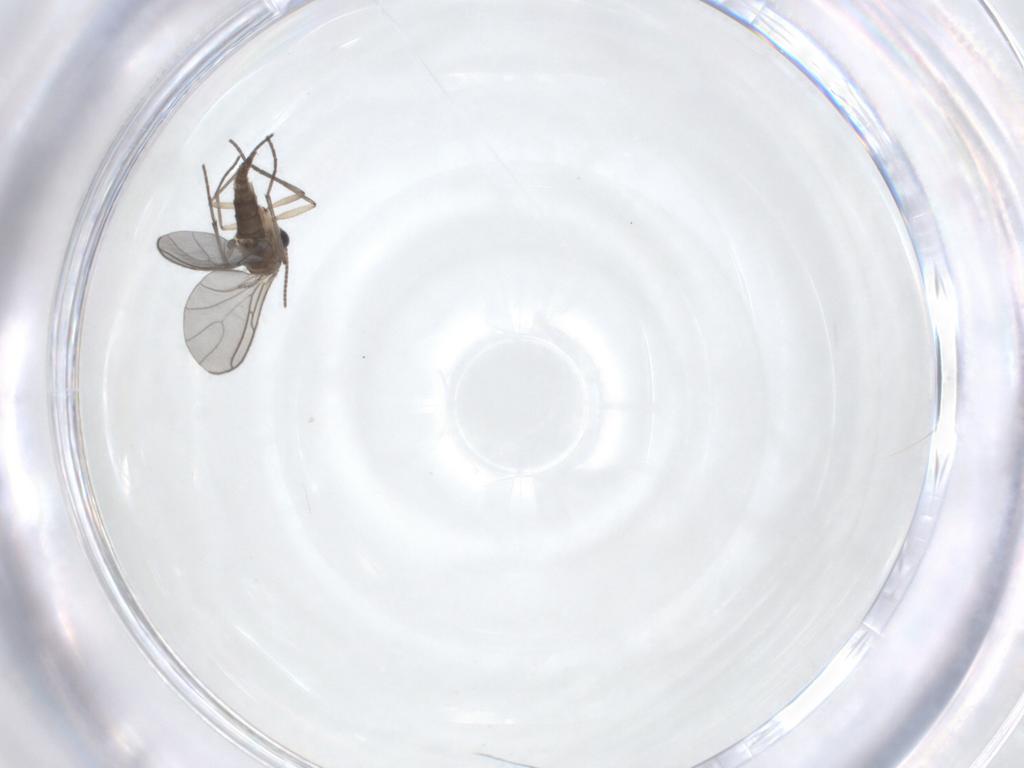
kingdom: Animalia
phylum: Arthropoda
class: Insecta
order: Diptera
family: Sciaridae
